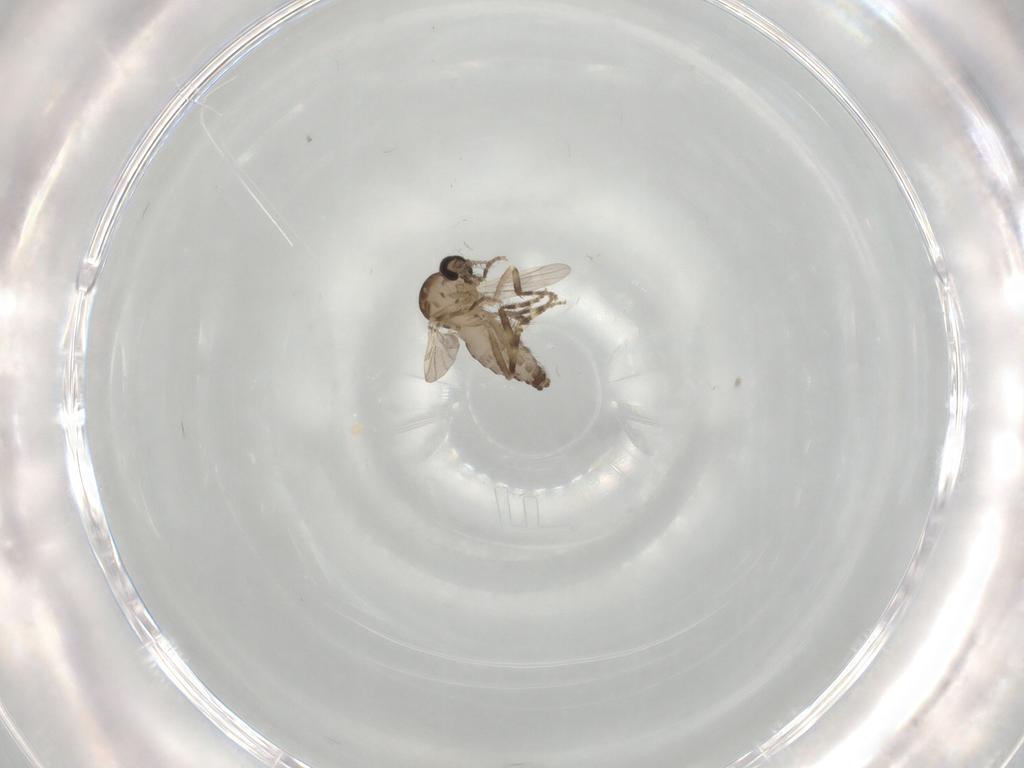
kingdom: Animalia
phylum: Arthropoda
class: Insecta
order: Diptera
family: Ceratopogonidae
